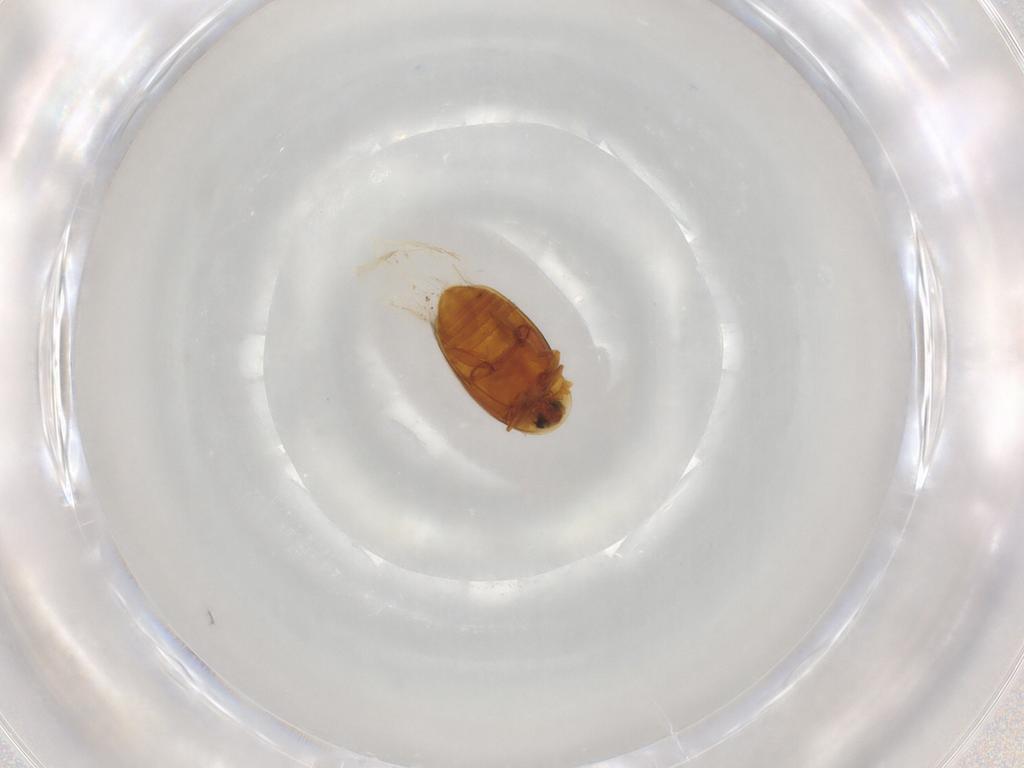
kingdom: Animalia
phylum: Arthropoda
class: Insecta
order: Coleoptera
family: Corylophidae
